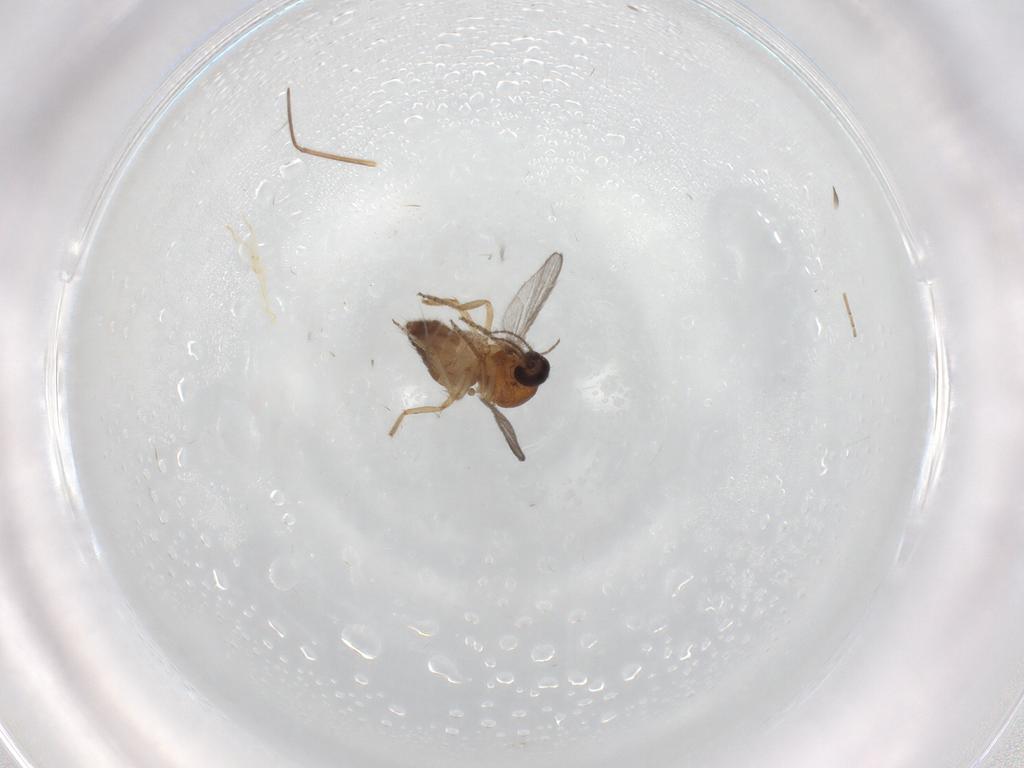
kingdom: Animalia
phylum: Arthropoda
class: Insecta
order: Diptera
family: Ceratopogonidae
